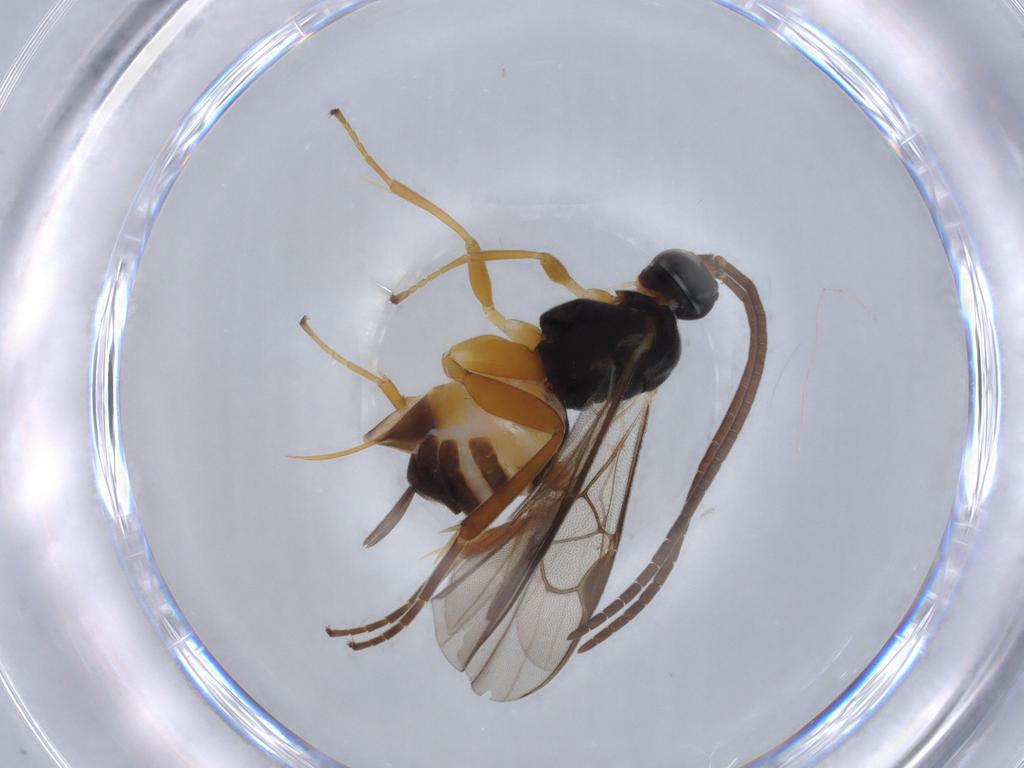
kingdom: Animalia
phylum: Arthropoda
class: Insecta
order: Hymenoptera
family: Braconidae
